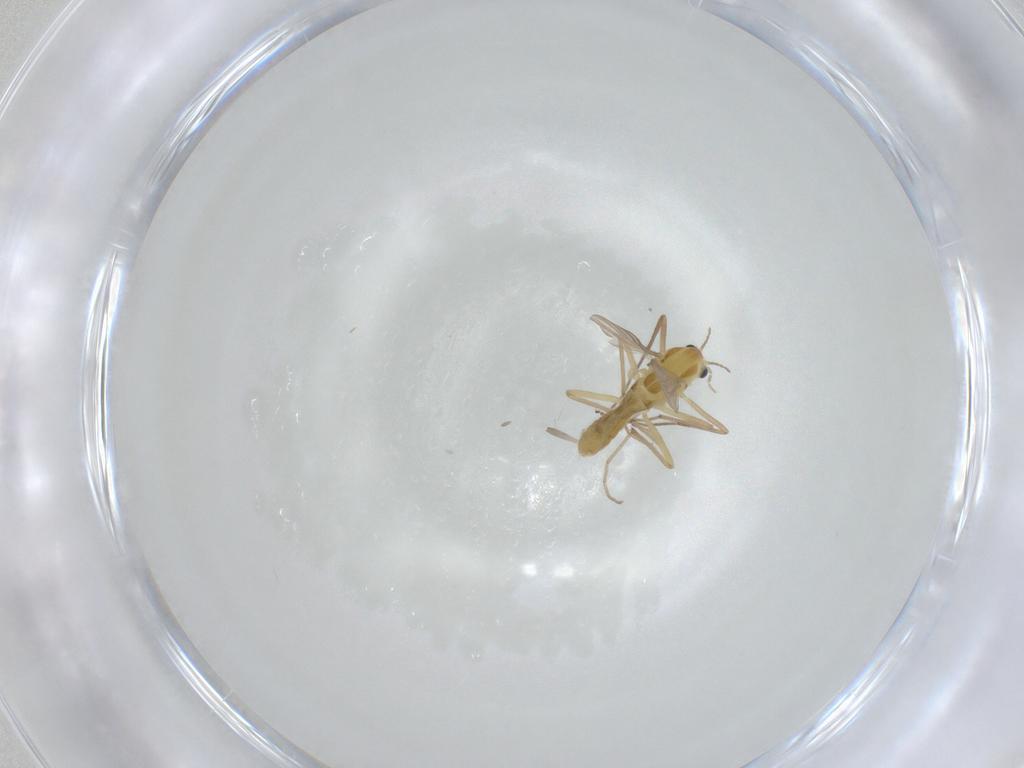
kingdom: Animalia
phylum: Arthropoda
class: Insecta
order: Diptera
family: Chironomidae
